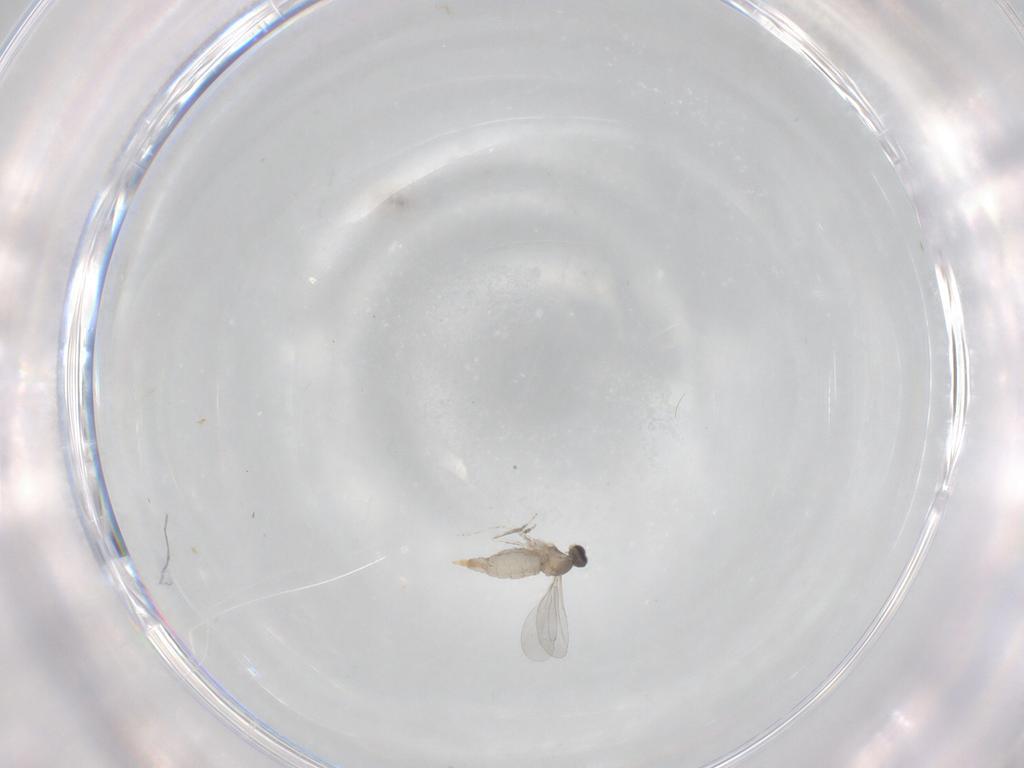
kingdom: Animalia
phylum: Arthropoda
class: Insecta
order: Diptera
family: Cecidomyiidae
